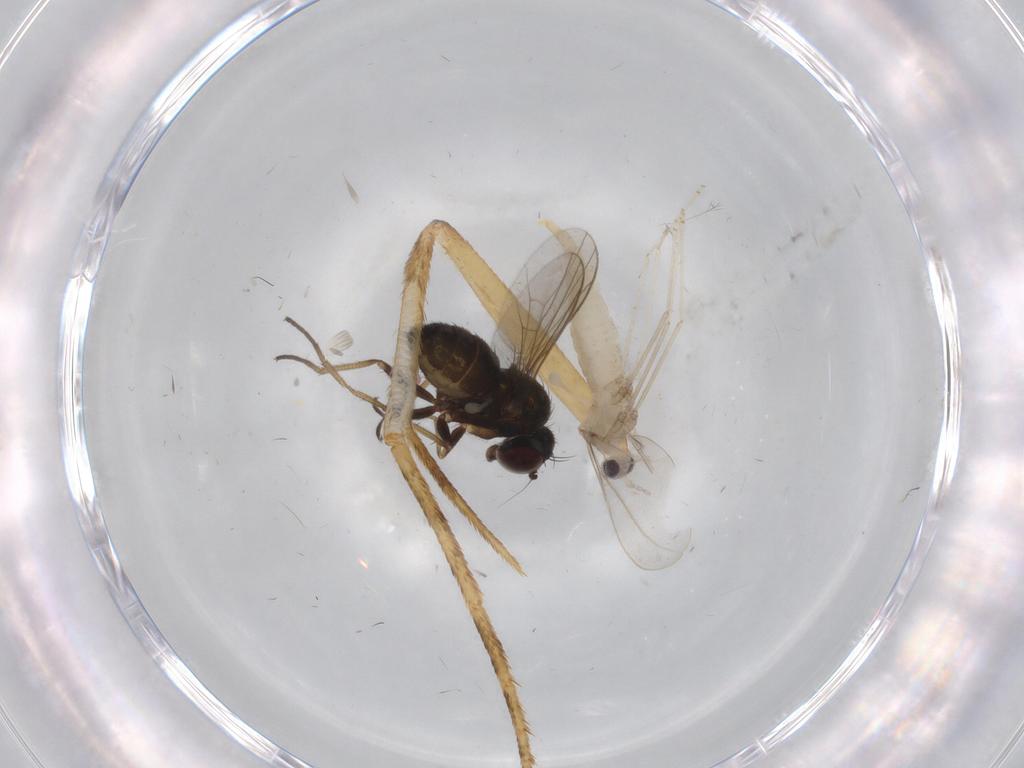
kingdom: Animalia
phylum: Arthropoda
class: Insecta
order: Diptera
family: Cecidomyiidae
